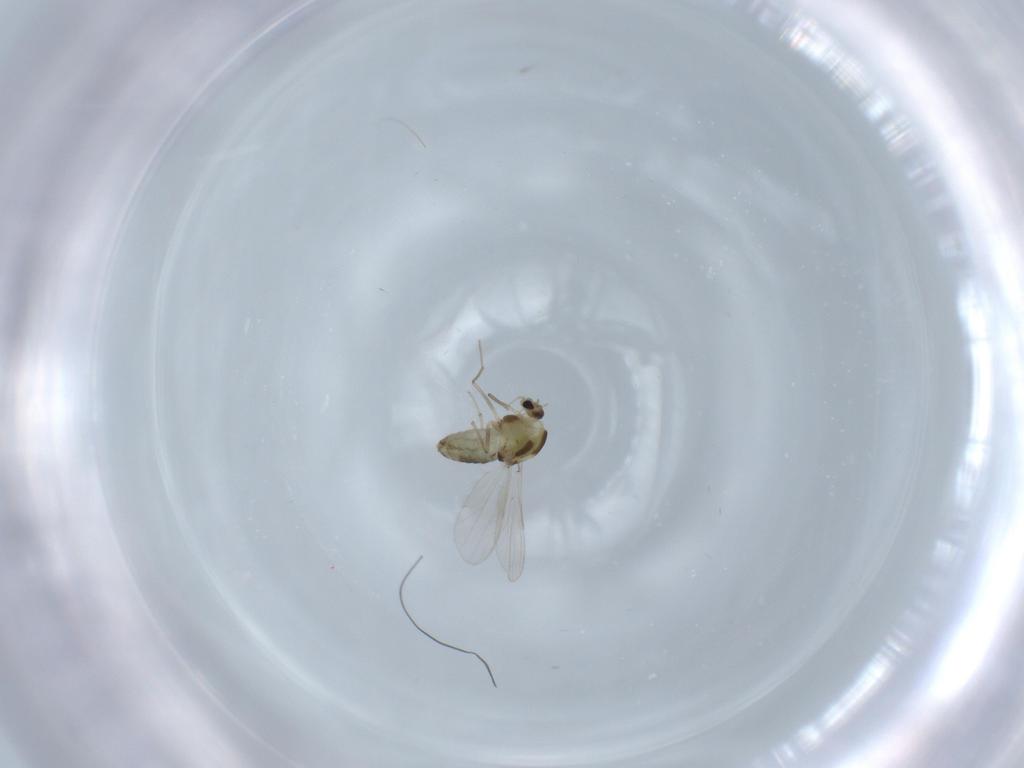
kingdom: Animalia
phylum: Arthropoda
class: Insecta
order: Diptera
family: Chironomidae
